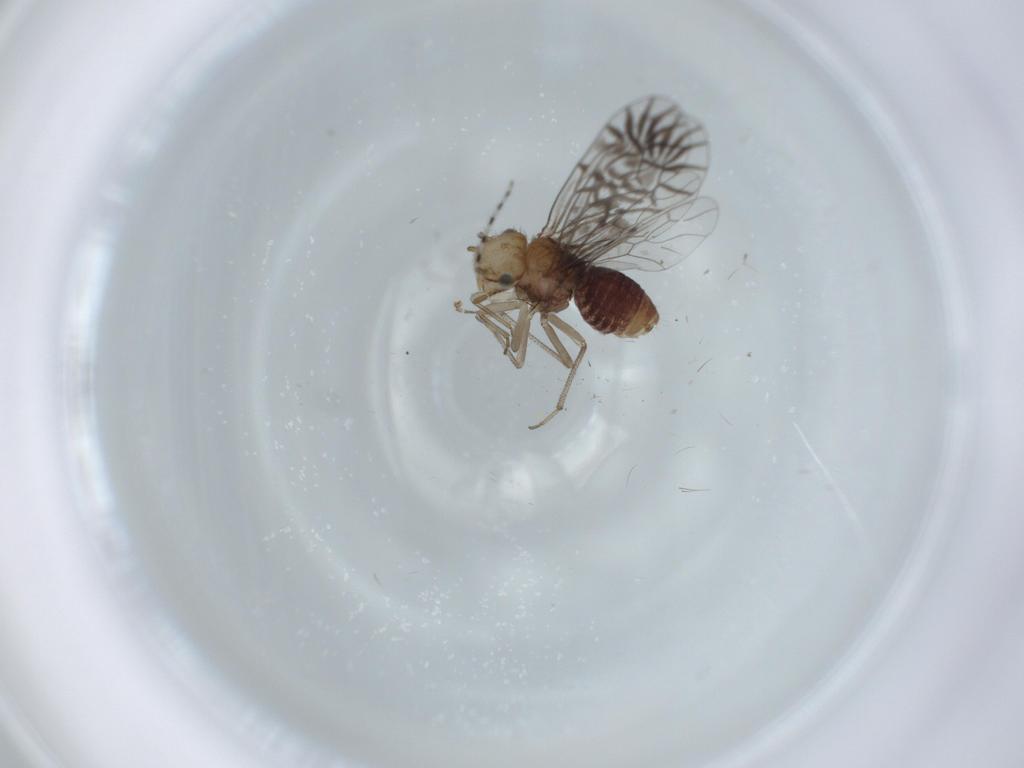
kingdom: Animalia
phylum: Arthropoda
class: Insecta
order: Psocodea
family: Amphipsocidae
